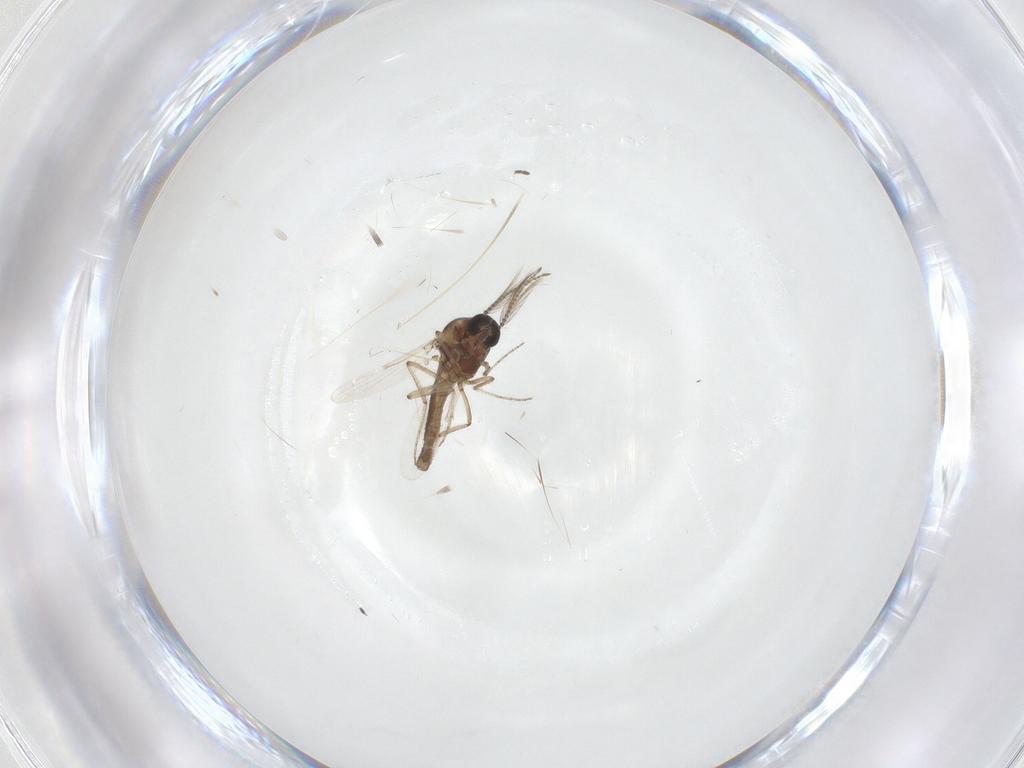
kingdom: Animalia
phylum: Arthropoda
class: Insecta
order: Diptera
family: Ceratopogonidae
